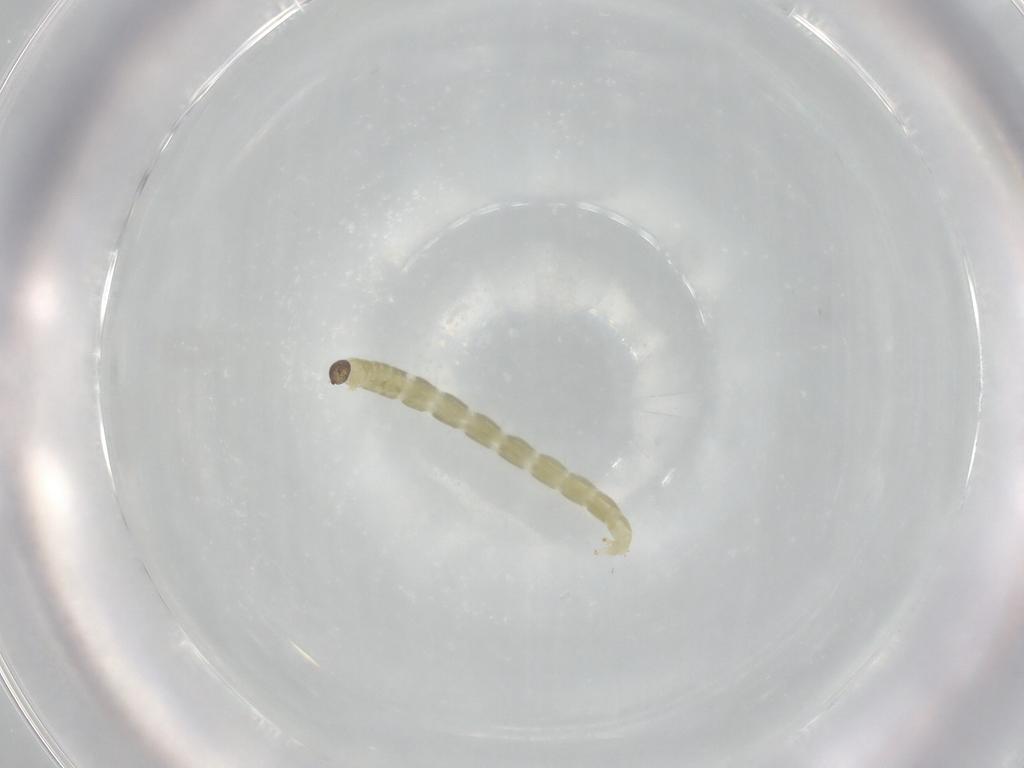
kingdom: Animalia
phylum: Arthropoda
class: Insecta
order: Diptera
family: Chironomidae
